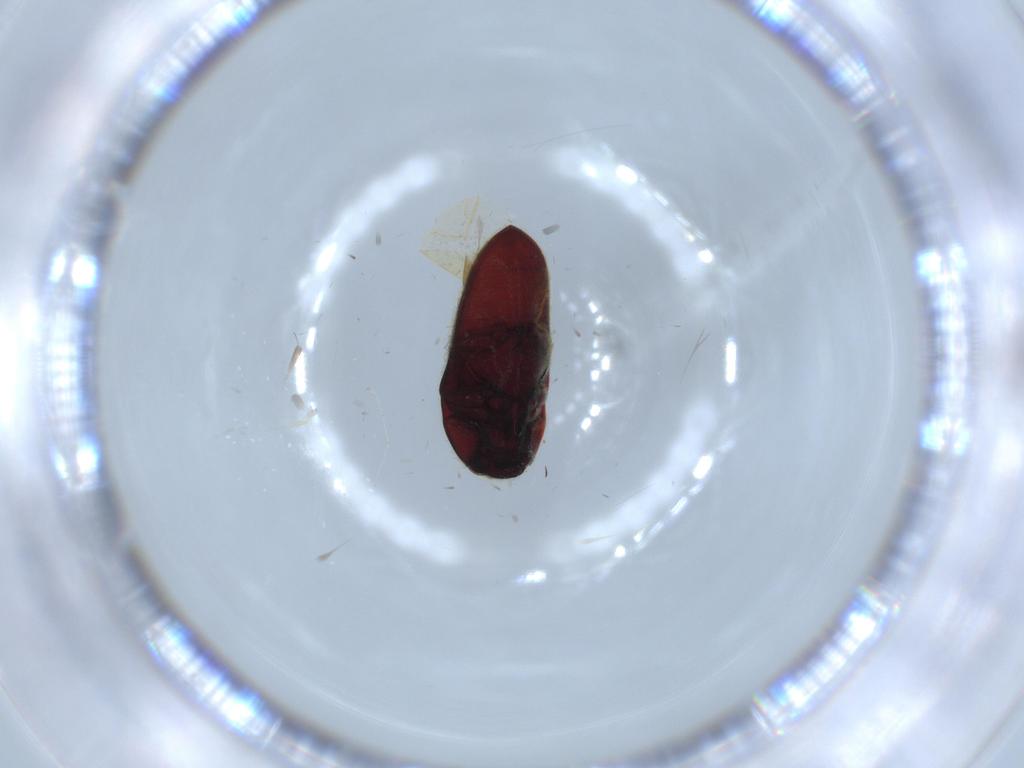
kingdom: Animalia
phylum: Arthropoda
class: Insecta
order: Coleoptera
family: Throscidae
